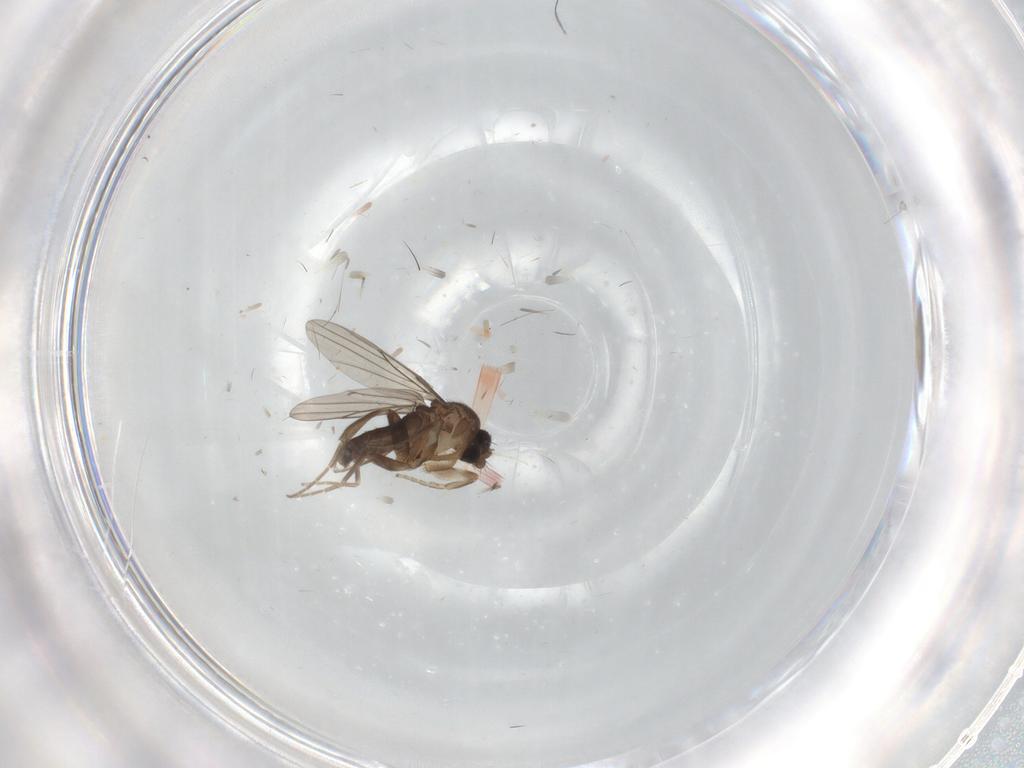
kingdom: Animalia
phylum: Arthropoda
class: Insecta
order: Diptera
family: Phoridae
